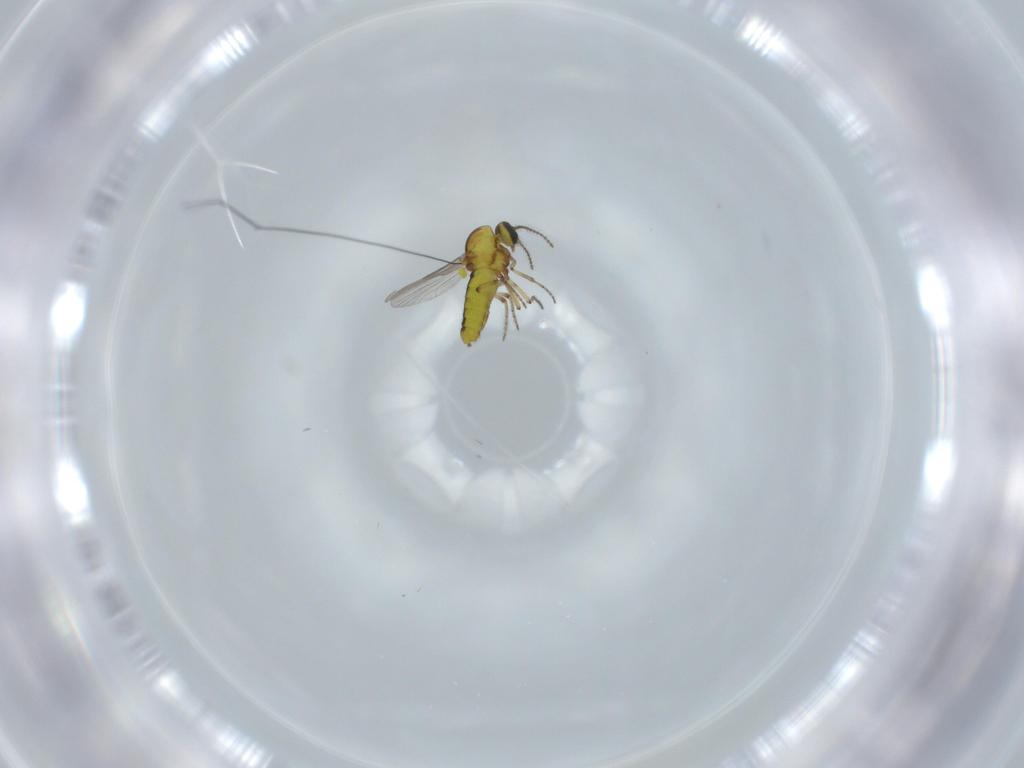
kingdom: Animalia
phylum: Arthropoda
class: Insecta
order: Diptera
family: Ceratopogonidae
